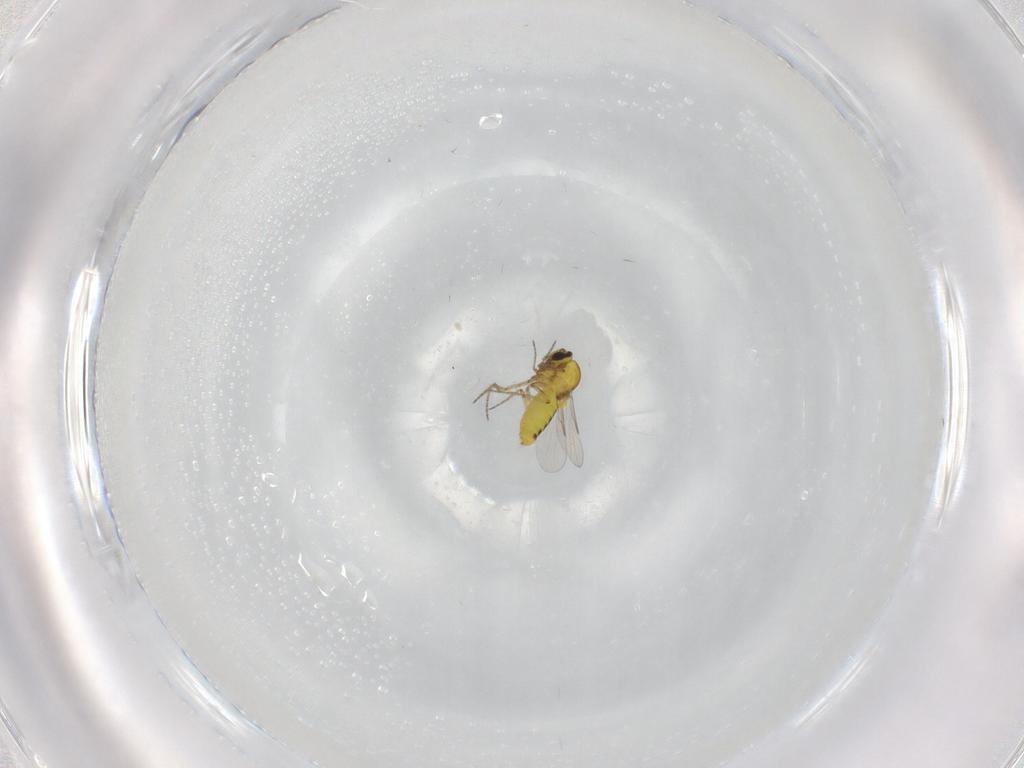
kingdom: Animalia
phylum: Arthropoda
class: Insecta
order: Diptera
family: Ceratopogonidae
